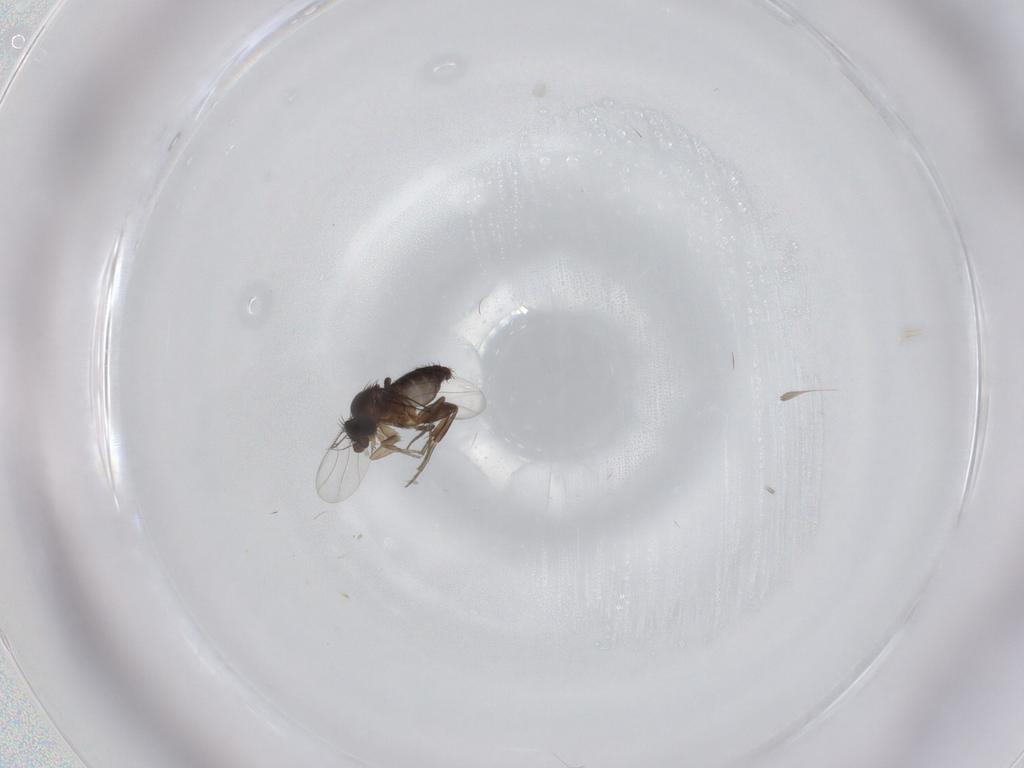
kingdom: Animalia
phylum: Arthropoda
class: Insecta
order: Diptera
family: Phoridae
